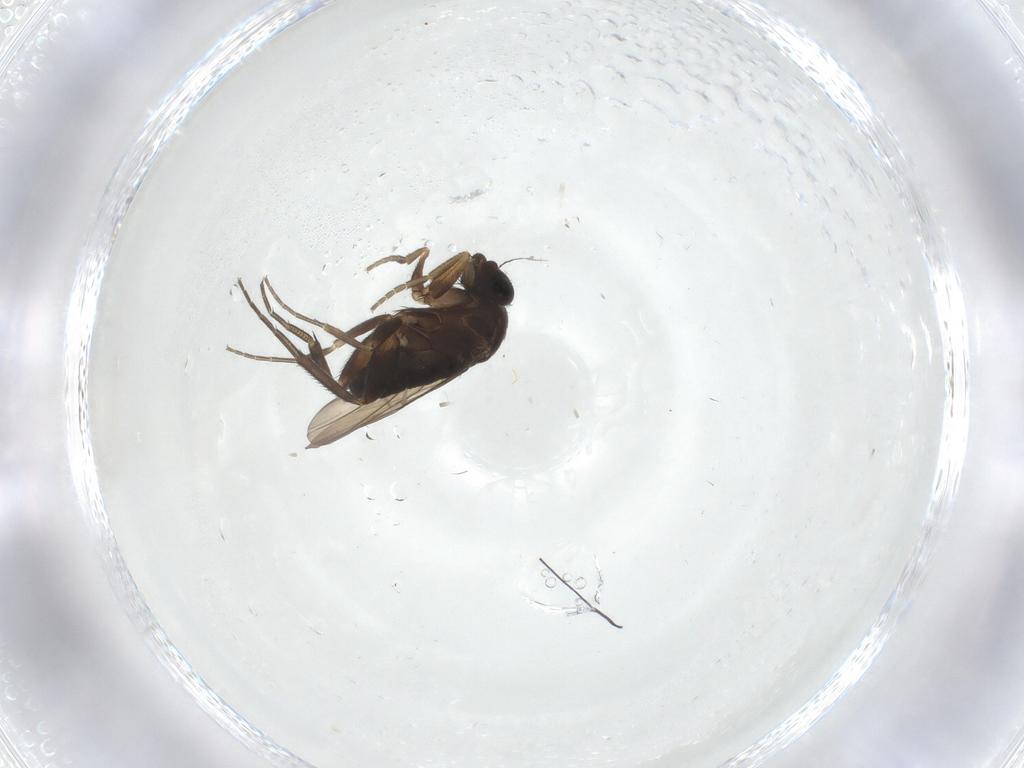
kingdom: Animalia
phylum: Arthropoda
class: Insecta
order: Diptera
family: Phoridae
